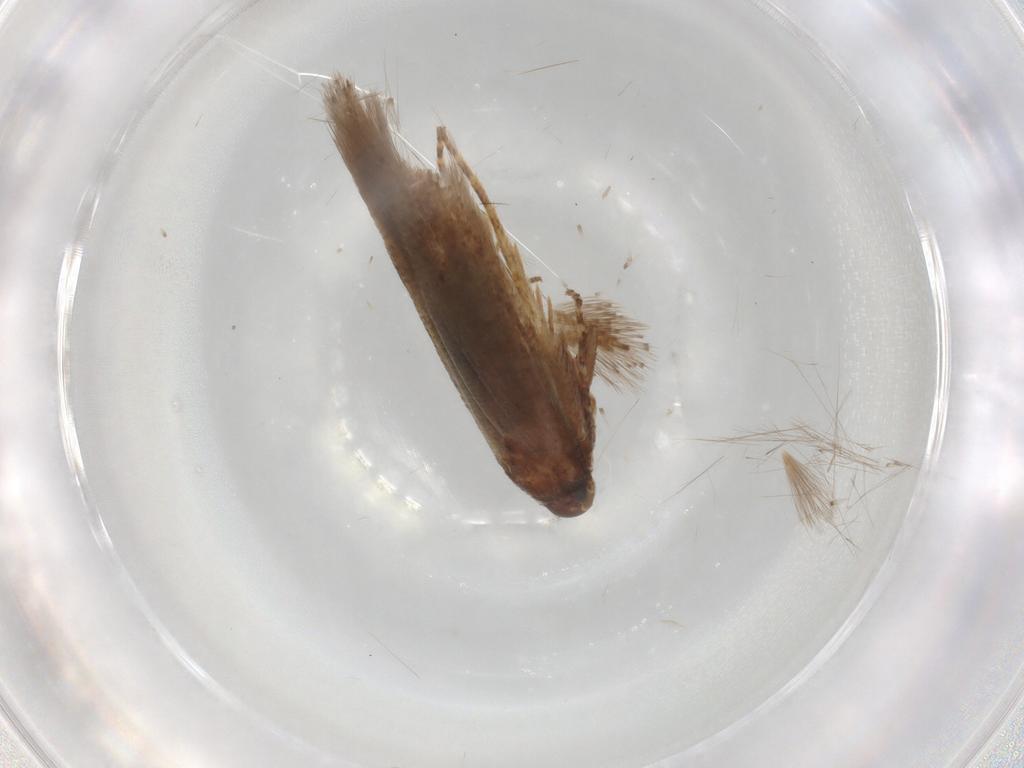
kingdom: Animalia
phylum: Arthropoda
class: Insecta
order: Lepidoptera
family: Gelechiidae
